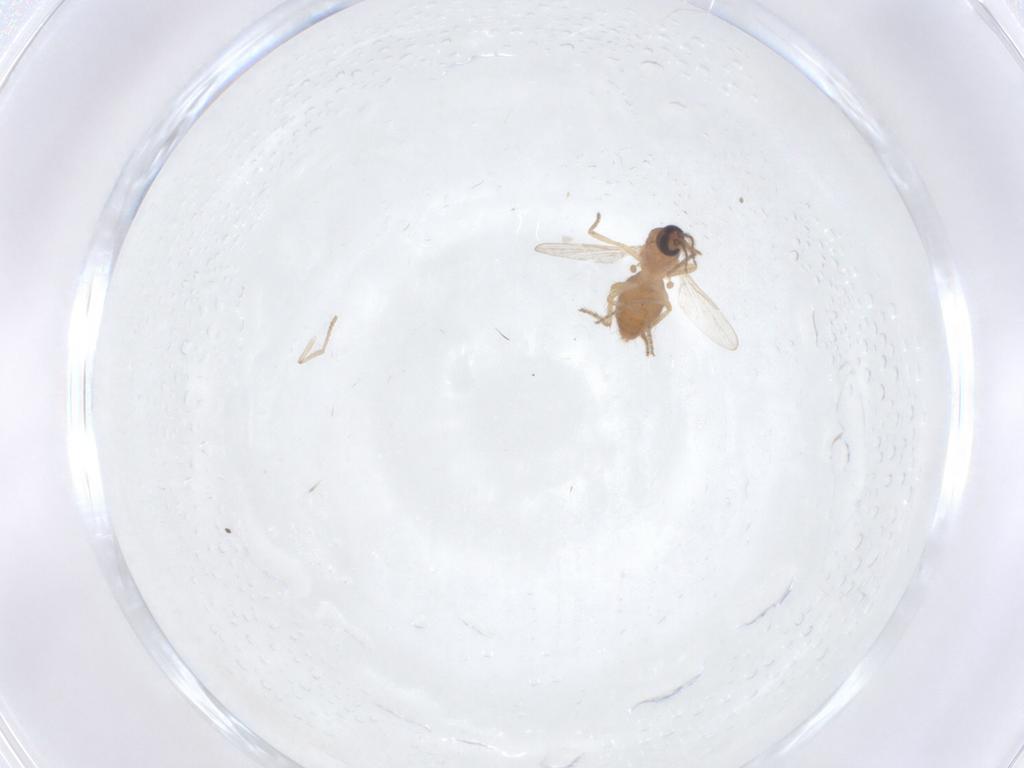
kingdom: Animalia
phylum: Arthropoda
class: Insecta
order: Diptera
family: Ceratopogonidae
